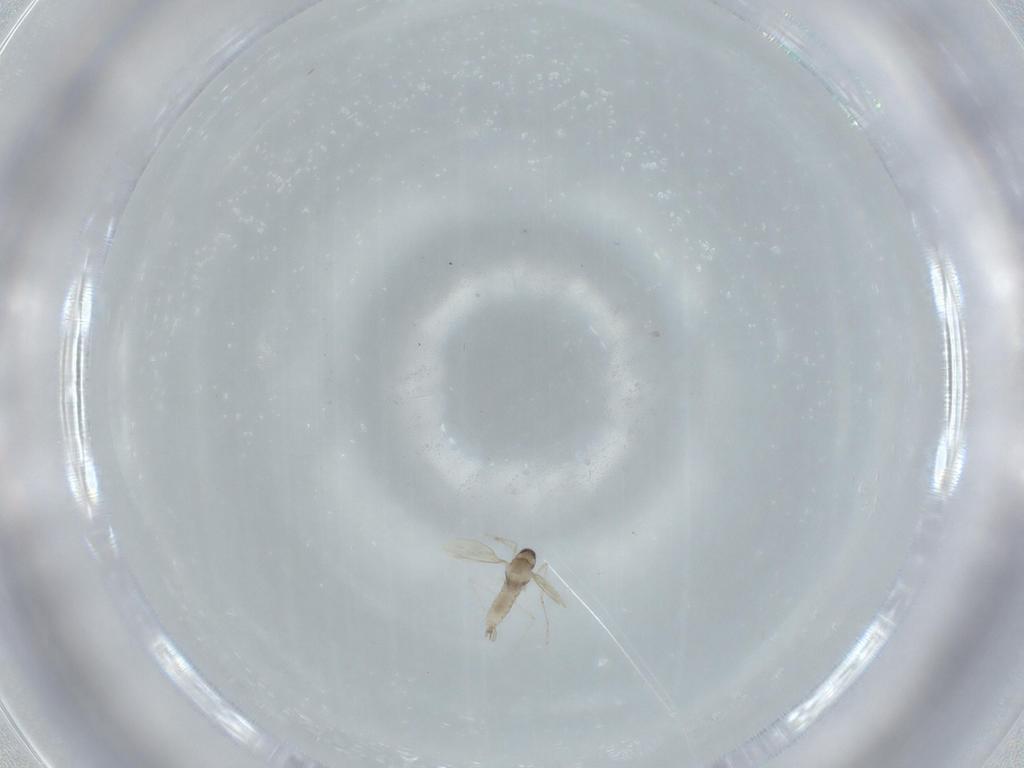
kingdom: Animalia
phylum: Arthropoda
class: Insecta
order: Diptera
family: Cecidomyiidae
